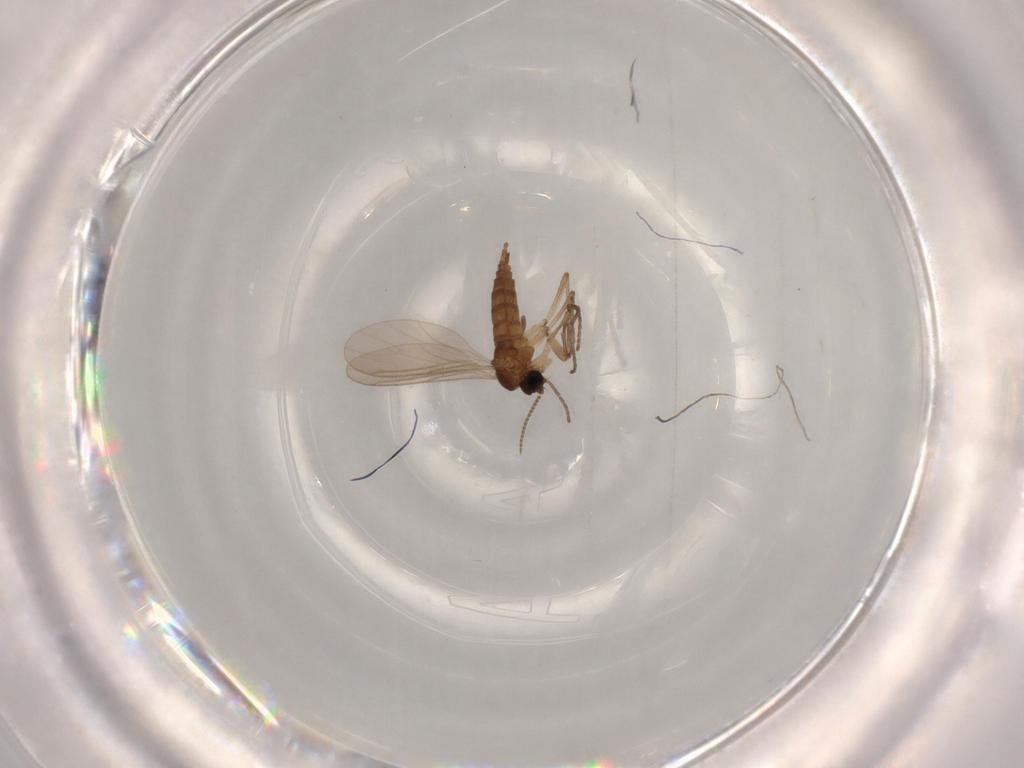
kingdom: Animalia
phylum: Arthropoda
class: Insecta
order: Diptera
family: Sciaridae
